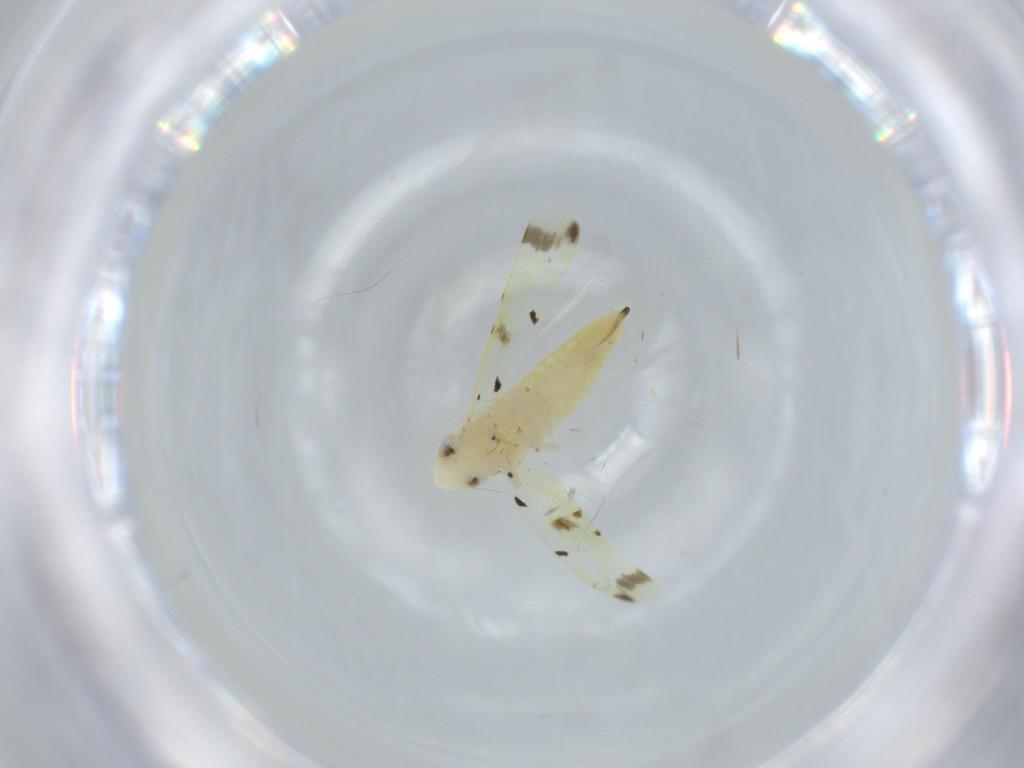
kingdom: Animalia
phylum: Arthropoda
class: Insecta
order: Hemiptera
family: Cicadellidae
